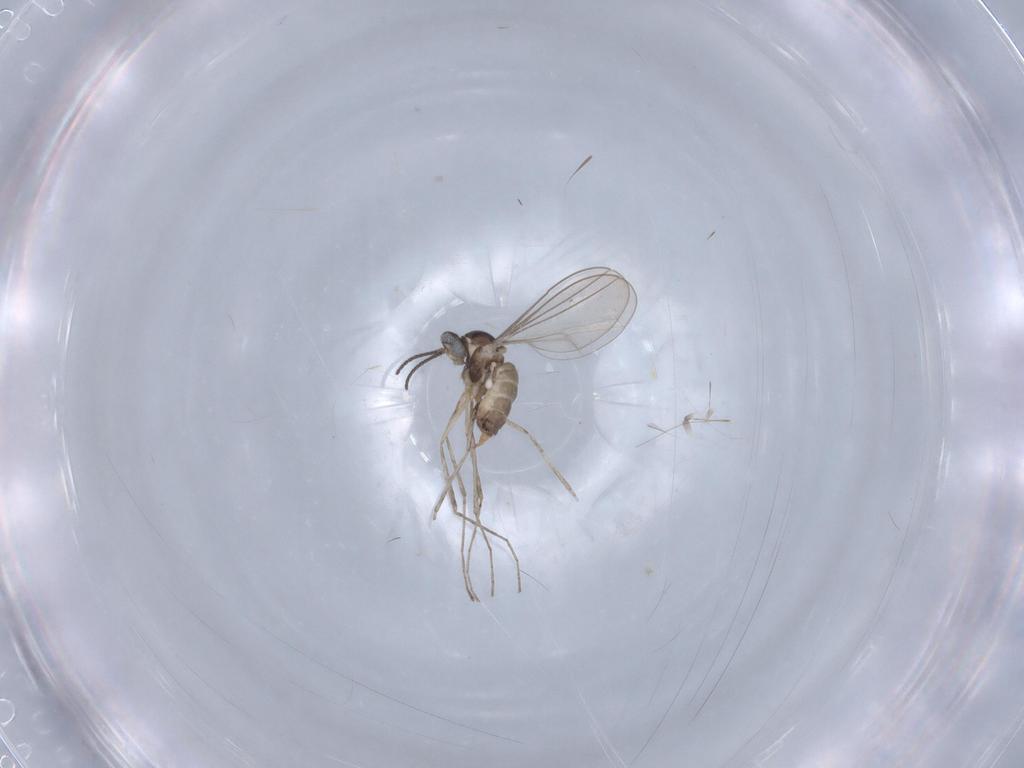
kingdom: Animalia
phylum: Arthropoda
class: Insecta
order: Diptera
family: Cecidomyiidae
